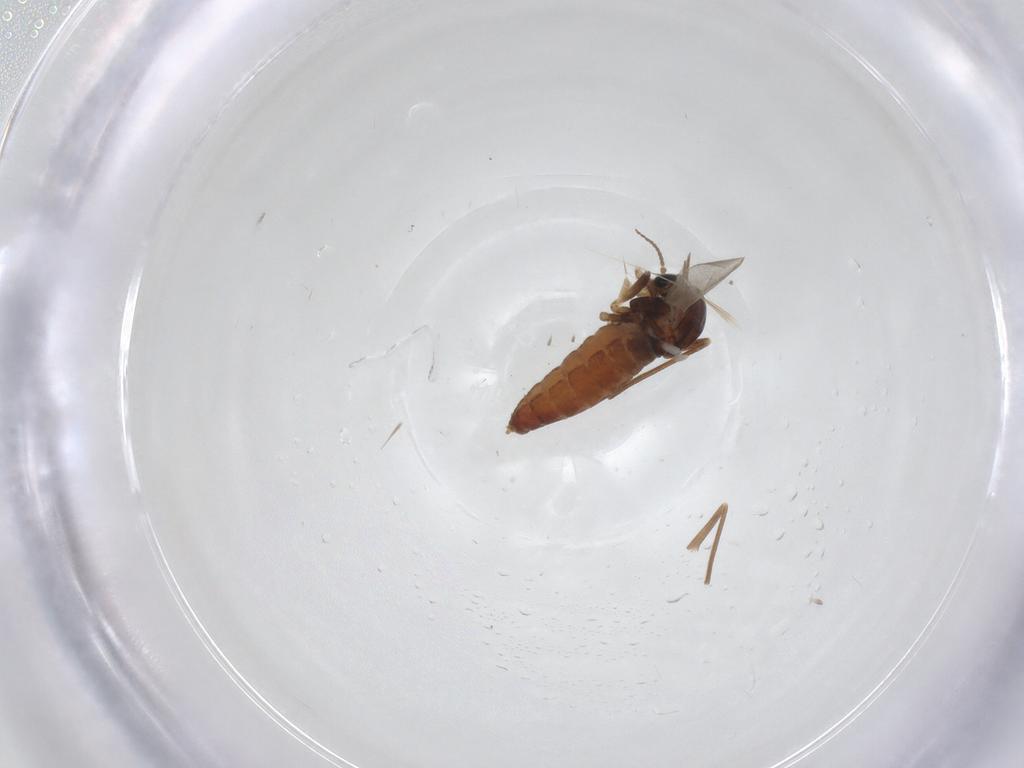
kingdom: Animalia
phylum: Arthropoda
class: Insecta
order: Diptera
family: Cecidomyiidae
